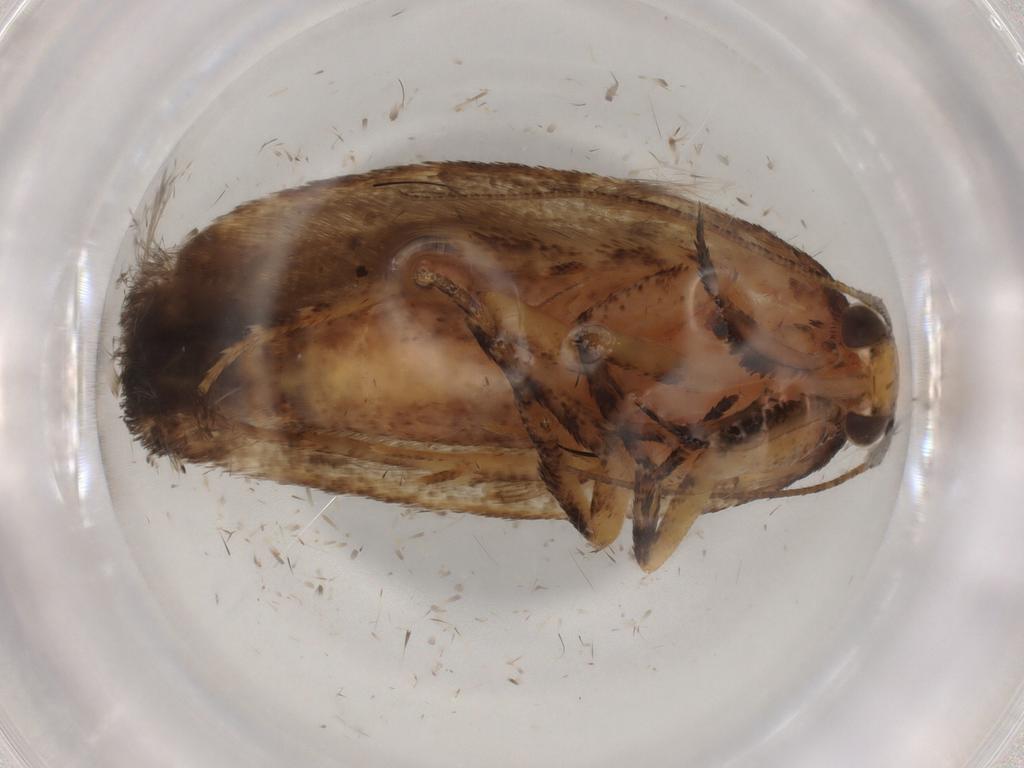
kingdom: Animalia
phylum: Arthropoda
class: Insecta
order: Lepidoptera
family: Gelechiidae
